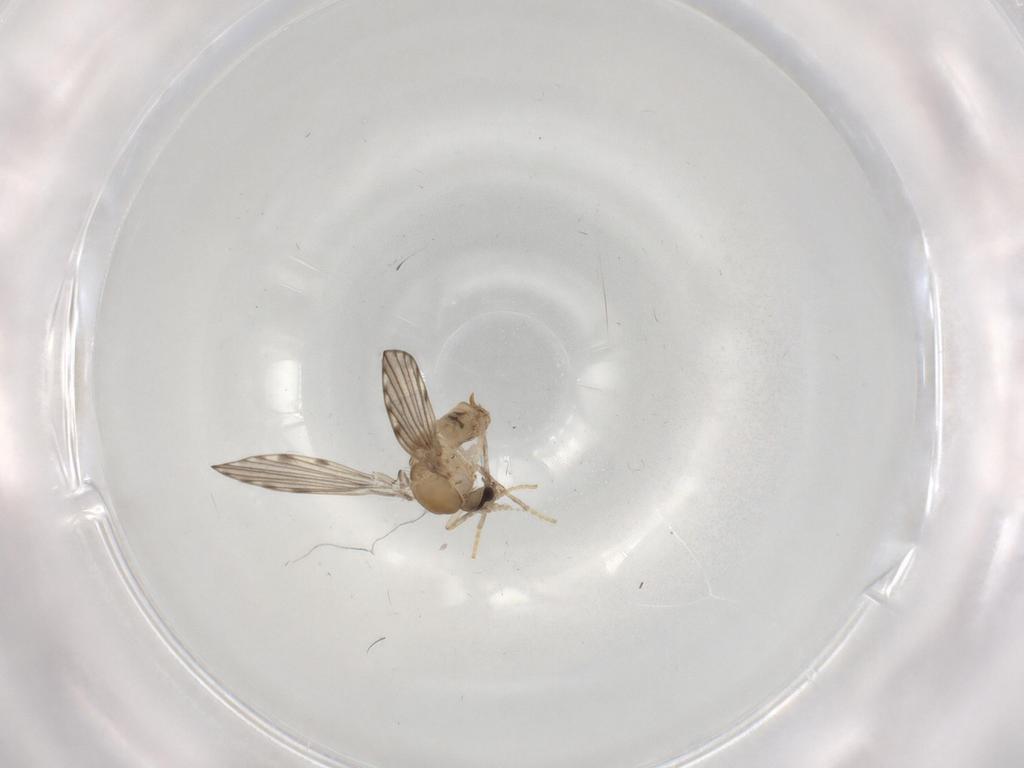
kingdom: Animalia
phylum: Arthropoda
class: Insecta
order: Diptera
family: Psychodidae
